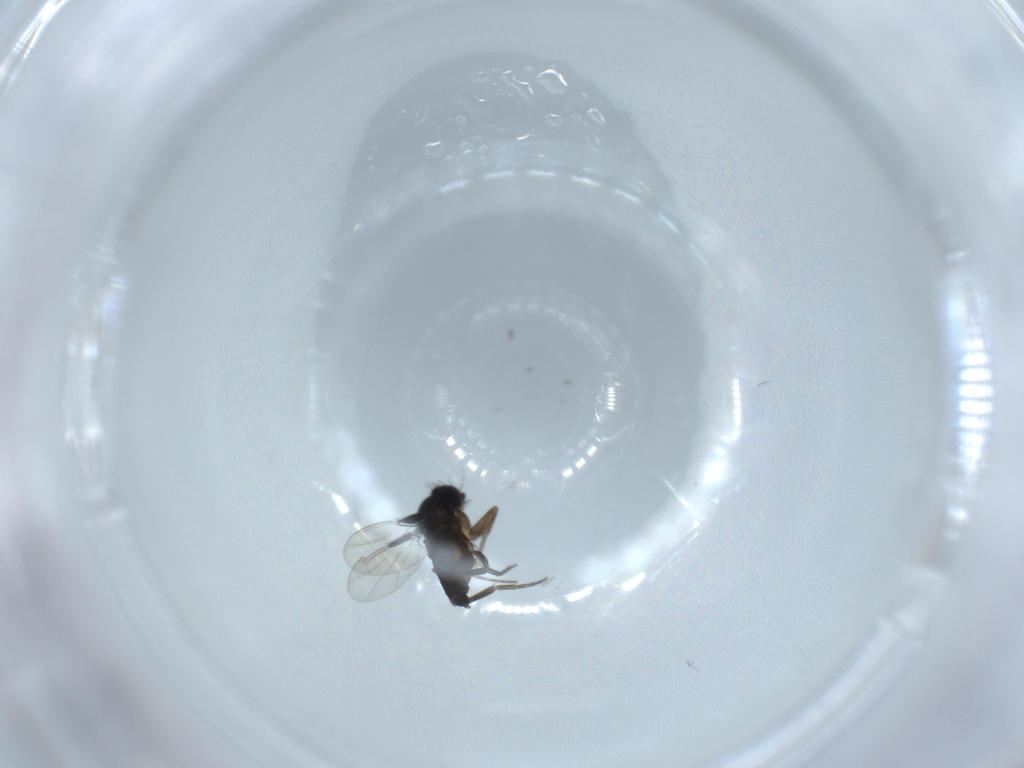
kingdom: Animalia
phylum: Arthropoda
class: Insecta
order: Diptera
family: Phoridae
